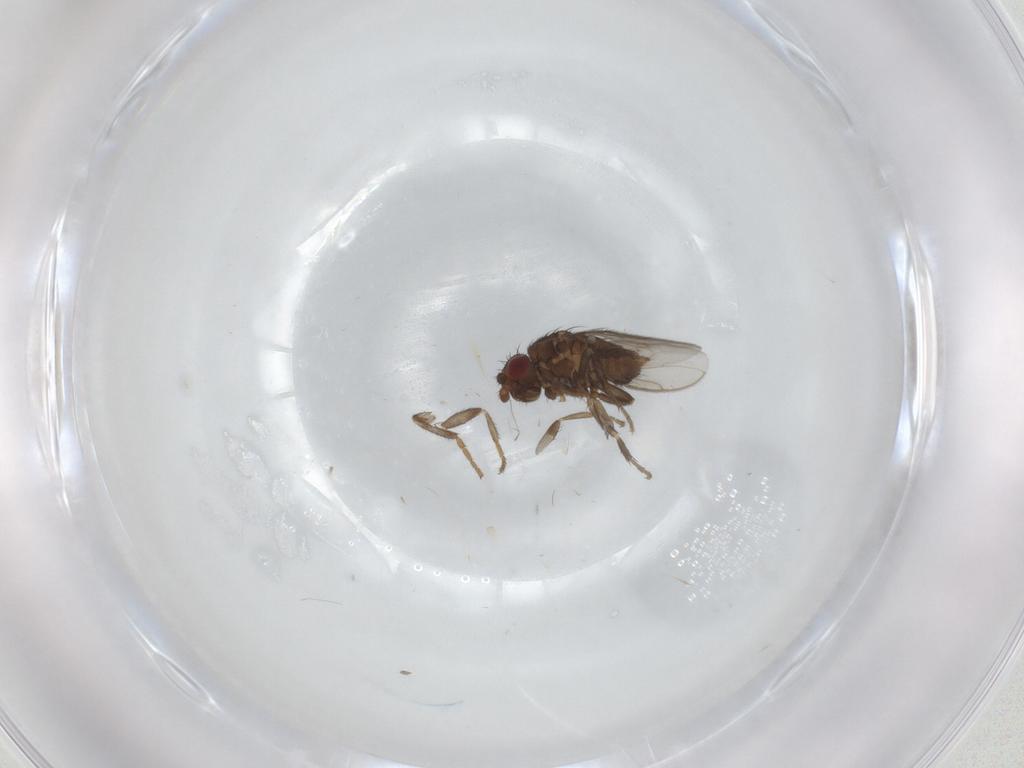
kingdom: Animalia
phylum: Arthropoda
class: Insecta
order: Diptera
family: Sphaeroceridae
